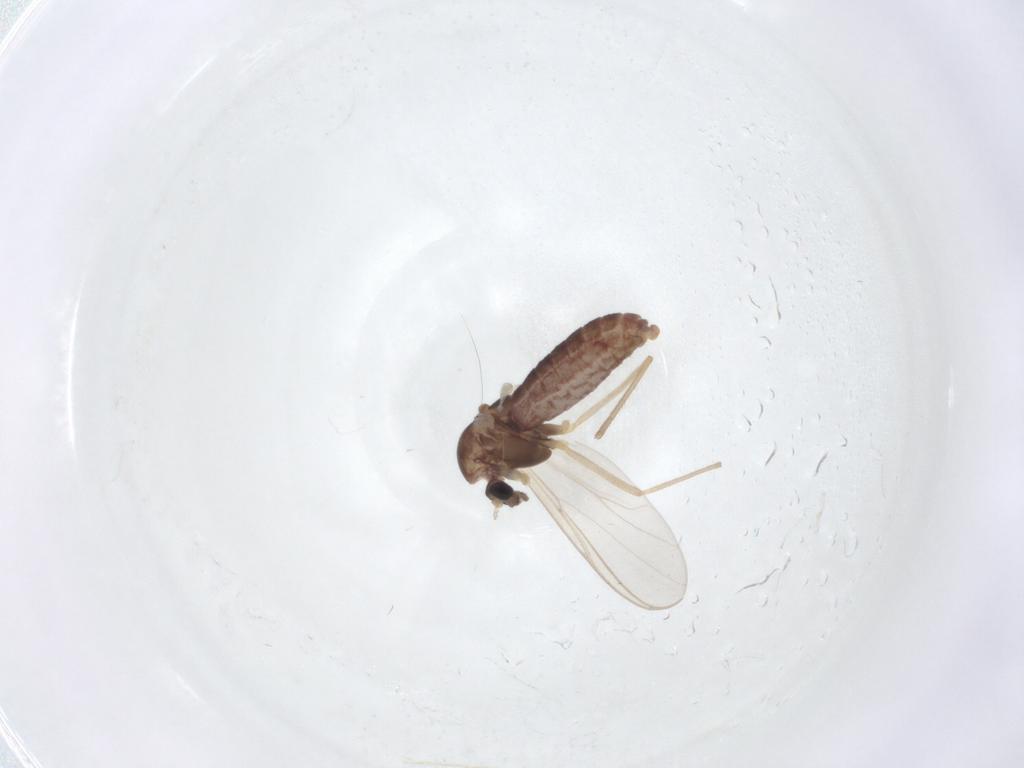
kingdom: Animalia
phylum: Arthropoda
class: Insecta
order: Diptera
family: Chironomidae
